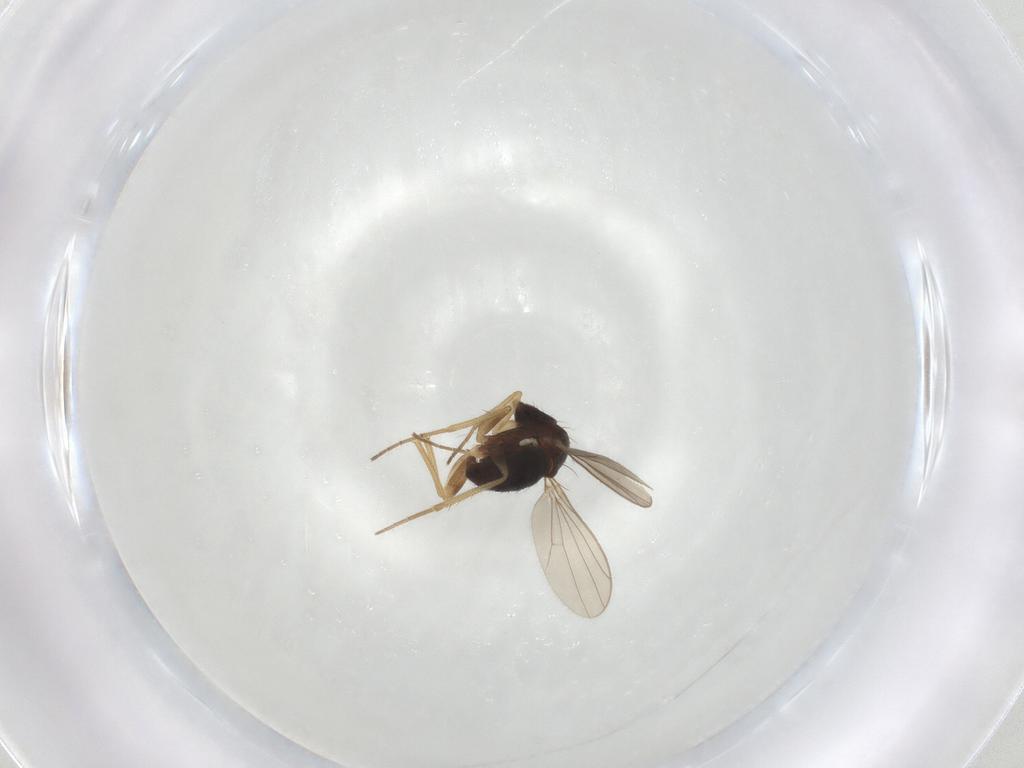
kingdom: Animalia
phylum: Arthropoda
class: Insecta
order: Diptera
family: Dolichopodidae
